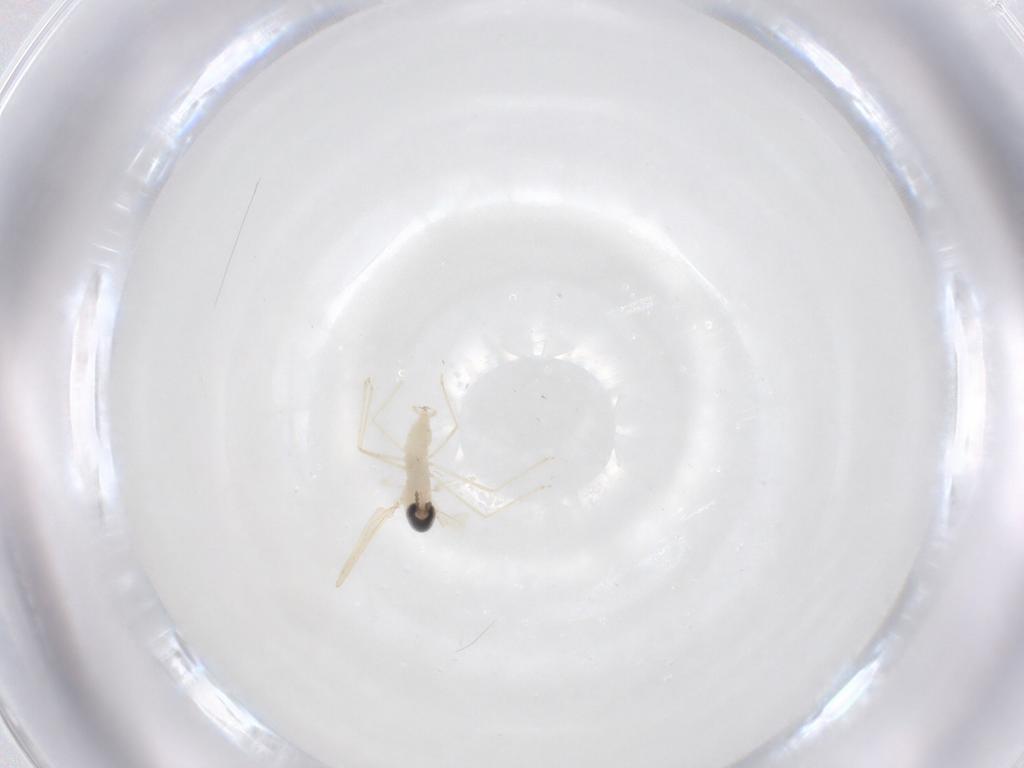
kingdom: Animalia
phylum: Arthropoda
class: Insecta
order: Diptera
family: Cecidomyiidae
